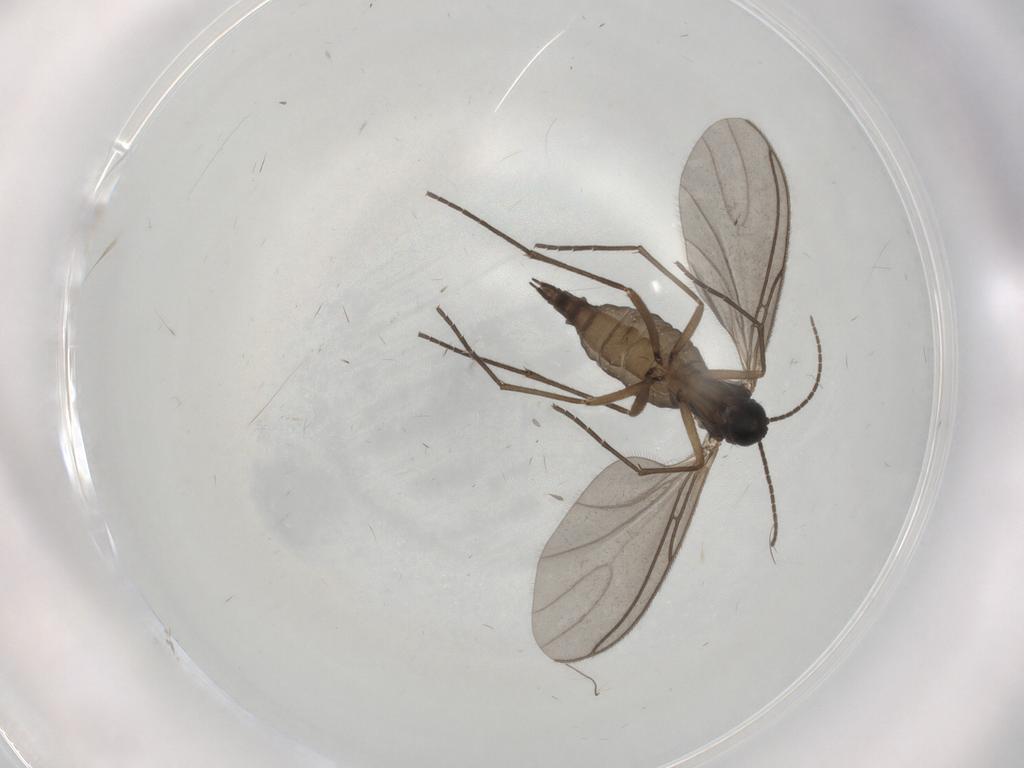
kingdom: Animalia
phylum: Arthropoda
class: Insecta
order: Diptera
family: Sciaridae
